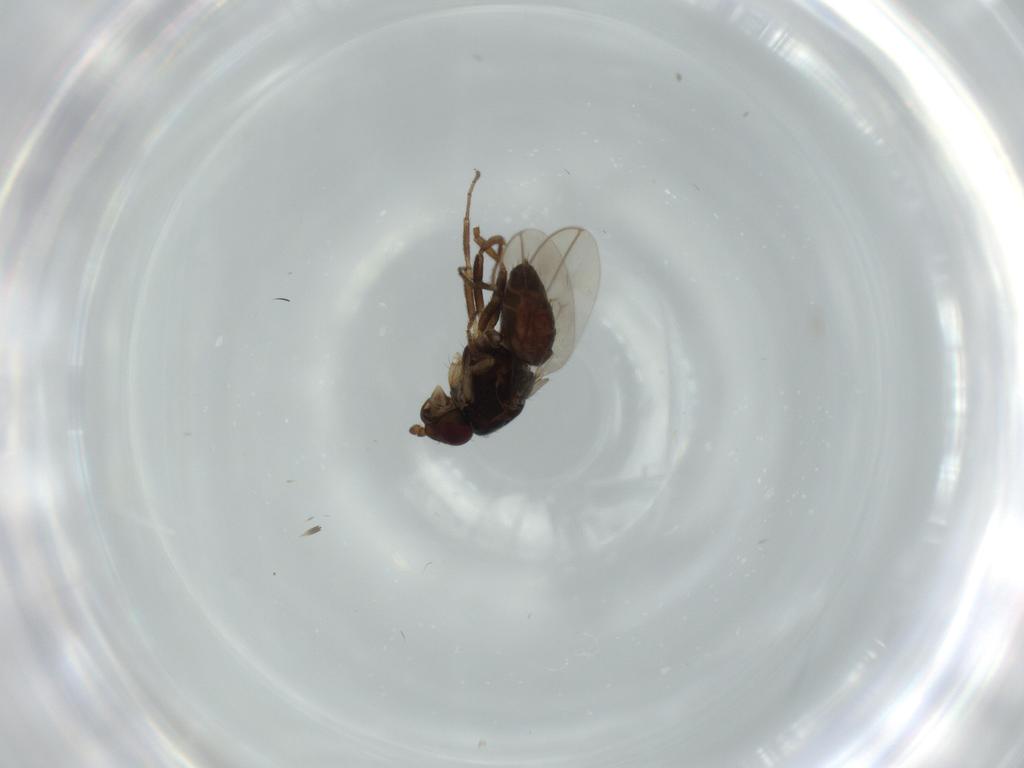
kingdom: Animalia
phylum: Arthropoda
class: Insecta
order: Diptera
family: Sphaeroceridae
